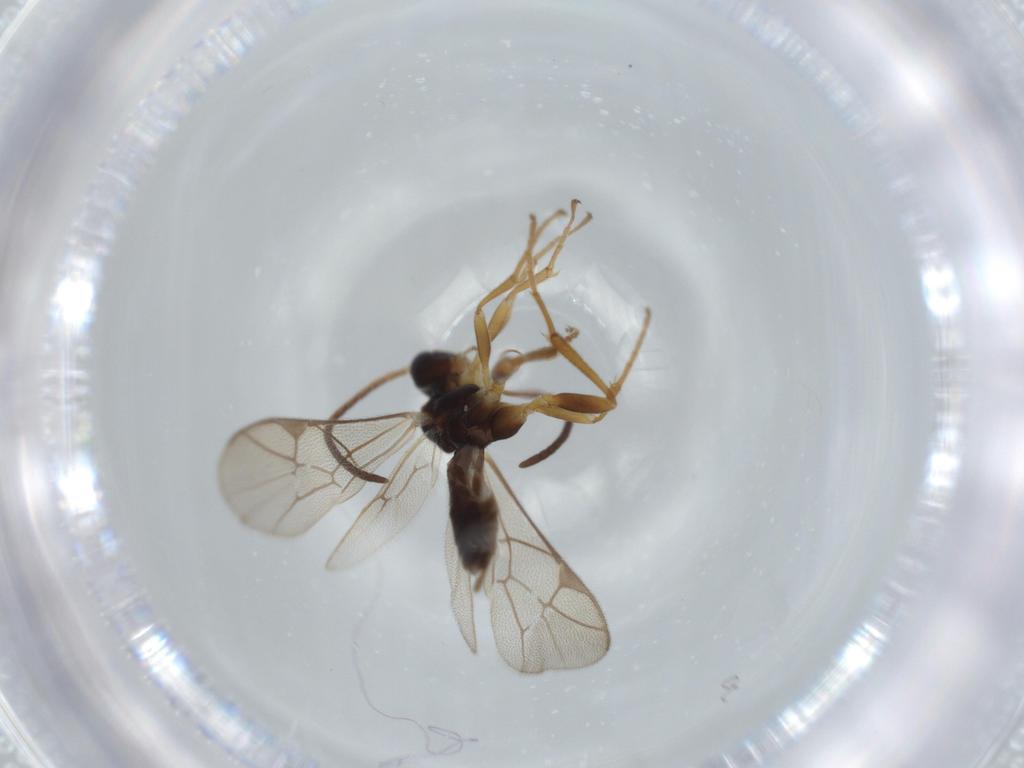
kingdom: Animalia
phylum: Arthropoda
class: Insecta
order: Hymenoptera
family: Ichneumonidae
